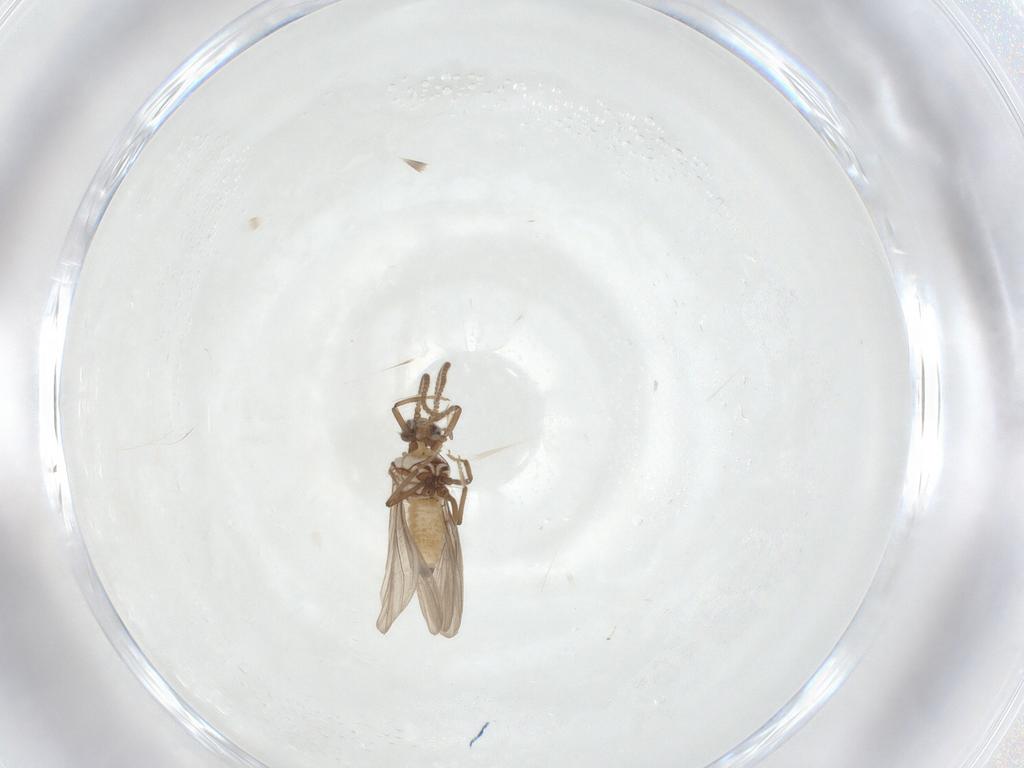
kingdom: Animalia
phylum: Arthropoda
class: Insecta
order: Neuroptera
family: Coniopterygidae
